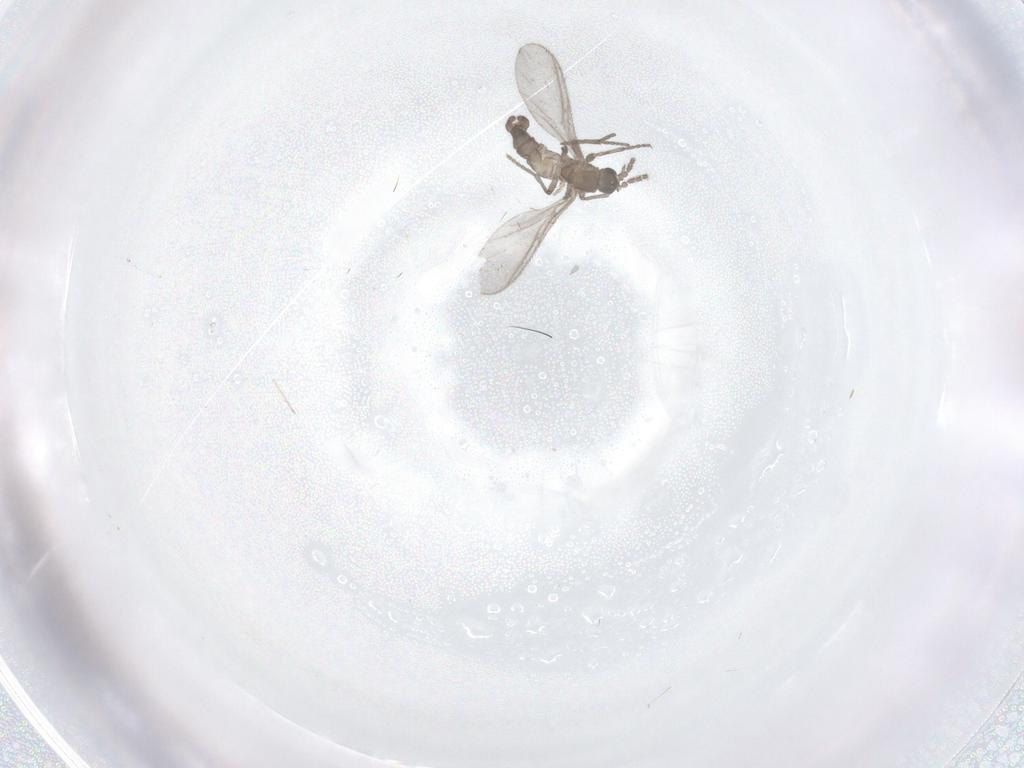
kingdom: Animalia
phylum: Arthropoda
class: Insecta
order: Diptera
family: Sciaridae
